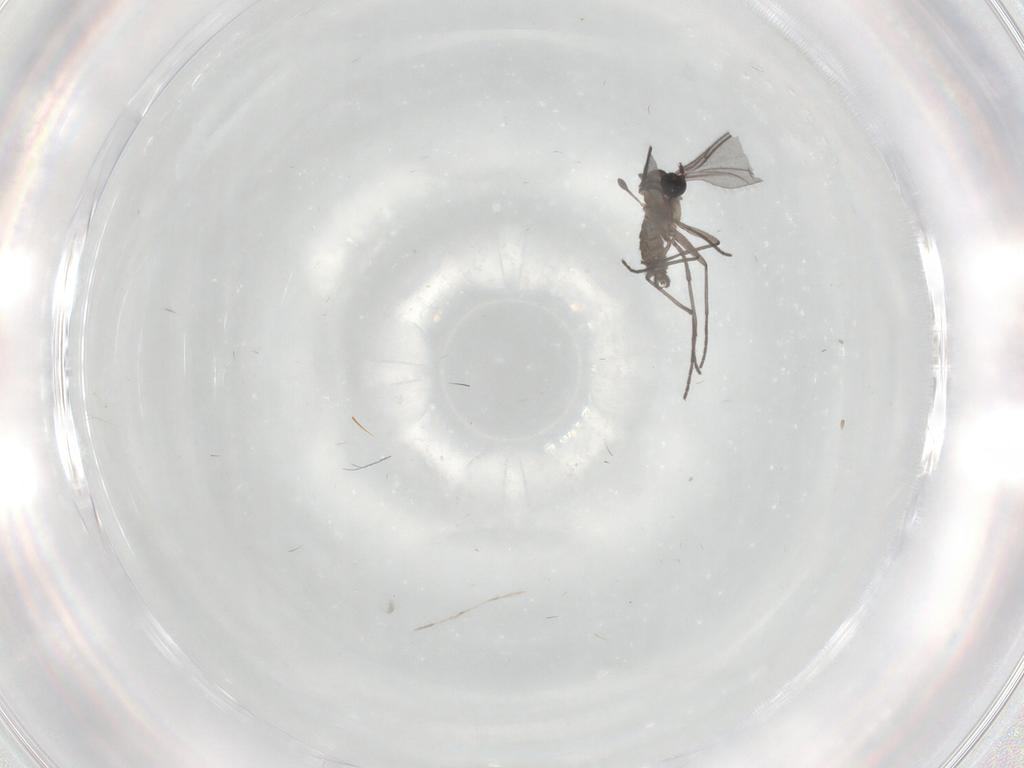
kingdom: Animalia
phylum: Arthropoda
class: Insecta
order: Diptera
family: Sciaridae
